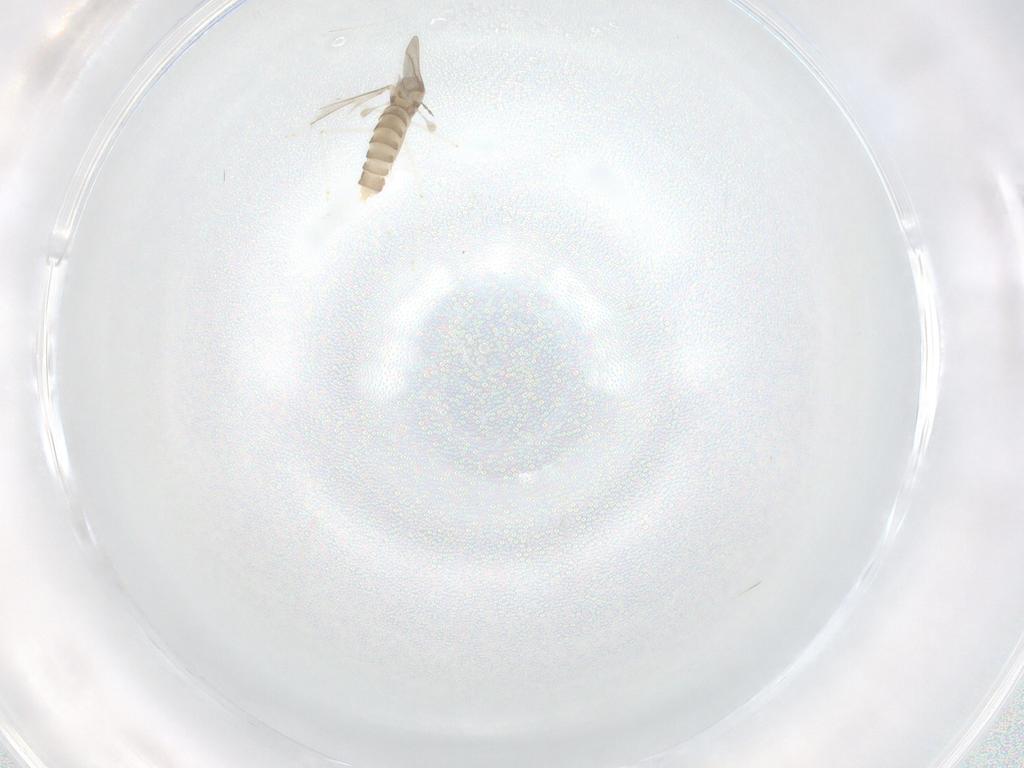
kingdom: Animalia
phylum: Arthropoda
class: Insecta
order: Diptera
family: Cecidomyiidae
